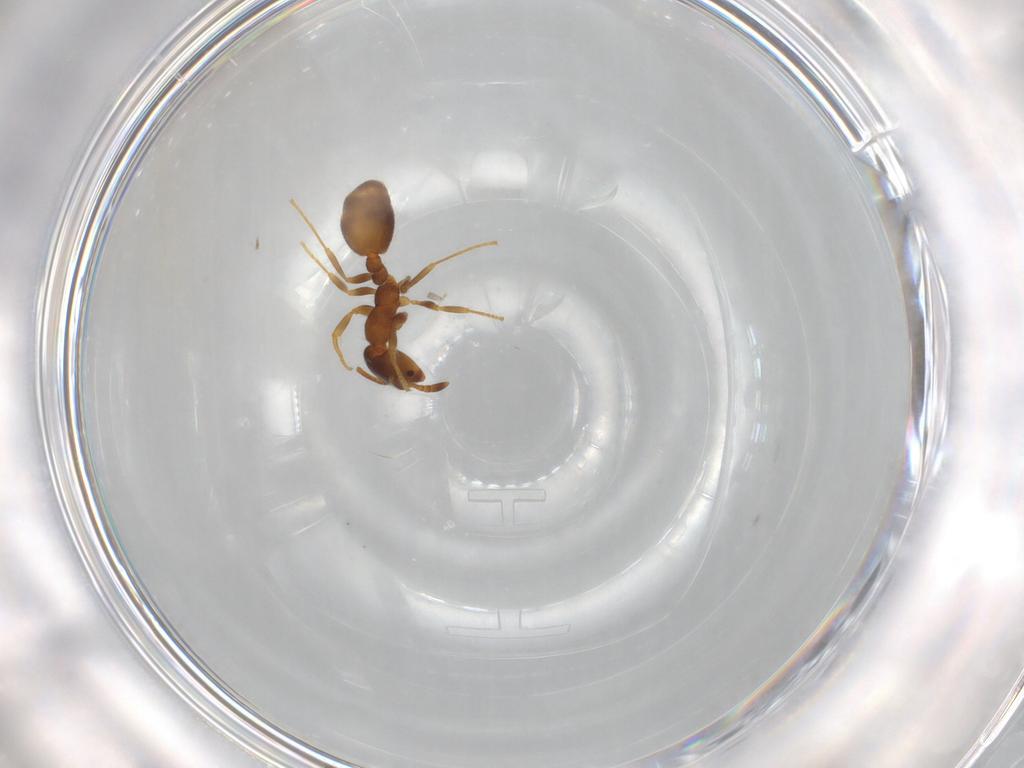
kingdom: Animalia
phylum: Arthropoda
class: Insecta
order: Hymenoptera
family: Formicidae
